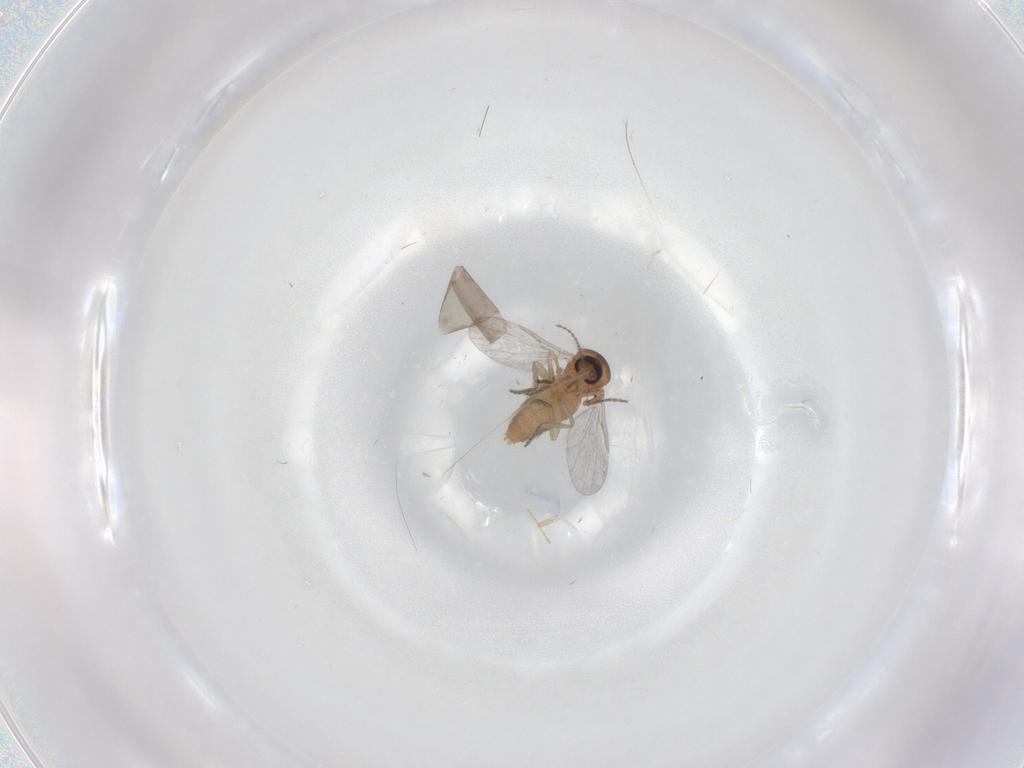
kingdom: Animalia
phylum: Arthropoda
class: Insecta
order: Diptera
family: Ceratopogonidae
